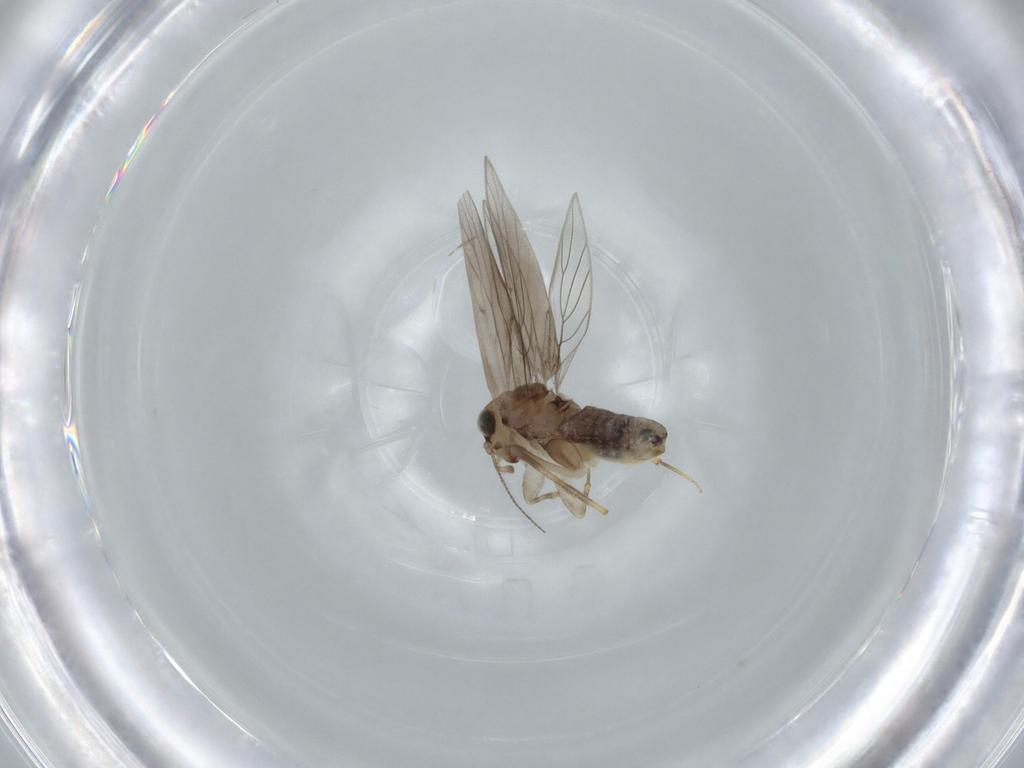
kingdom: Animalia
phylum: Arthropoda
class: Insecta
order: Psocodea
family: Lepidopsocidae
